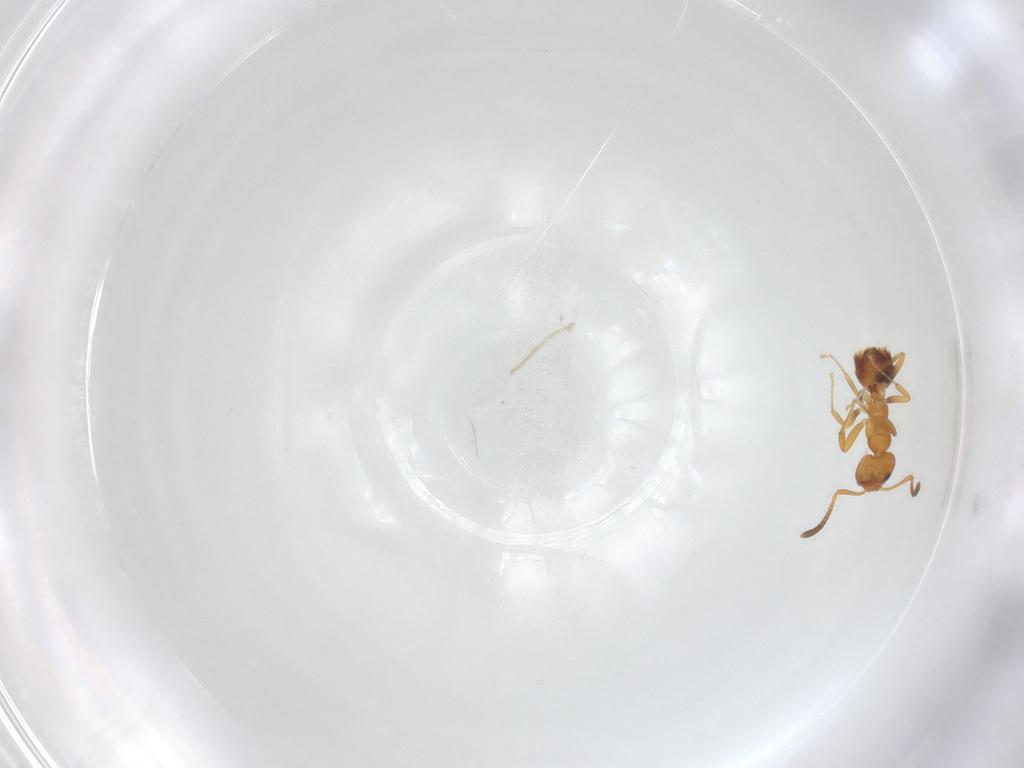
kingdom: Animalia
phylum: Arthropoda
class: Insecta
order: Hymenoptera
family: Formicidae
